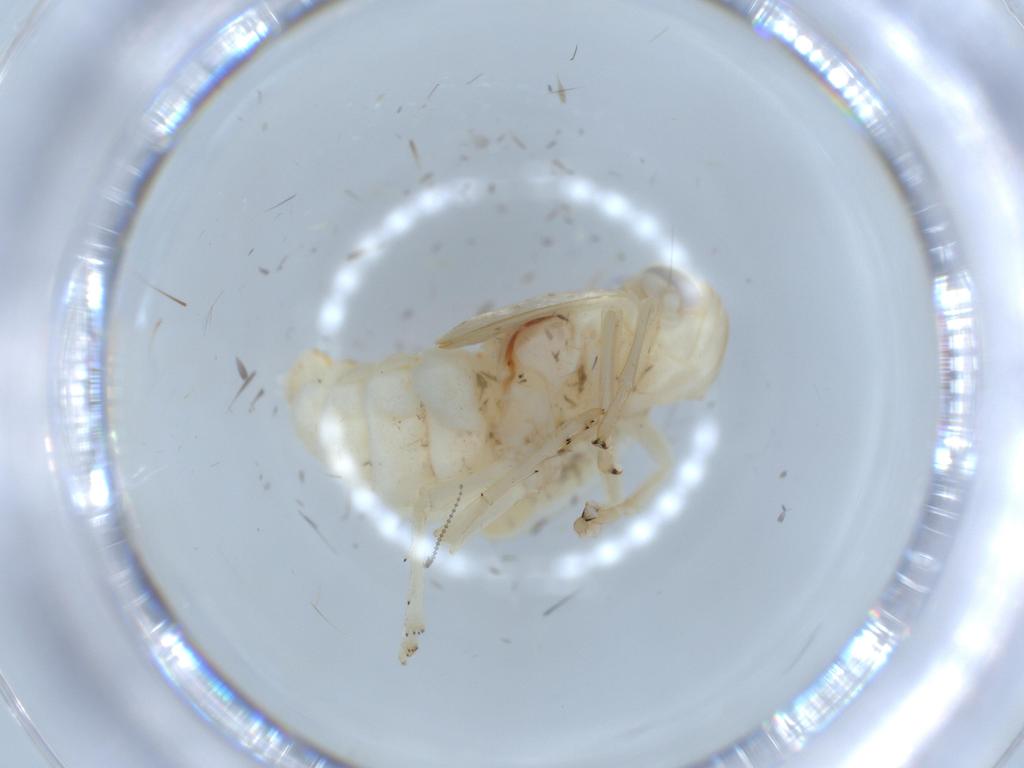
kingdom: Animalia
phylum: Arthropoda
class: Insecta
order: Hemiptera
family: Nogodinidae
